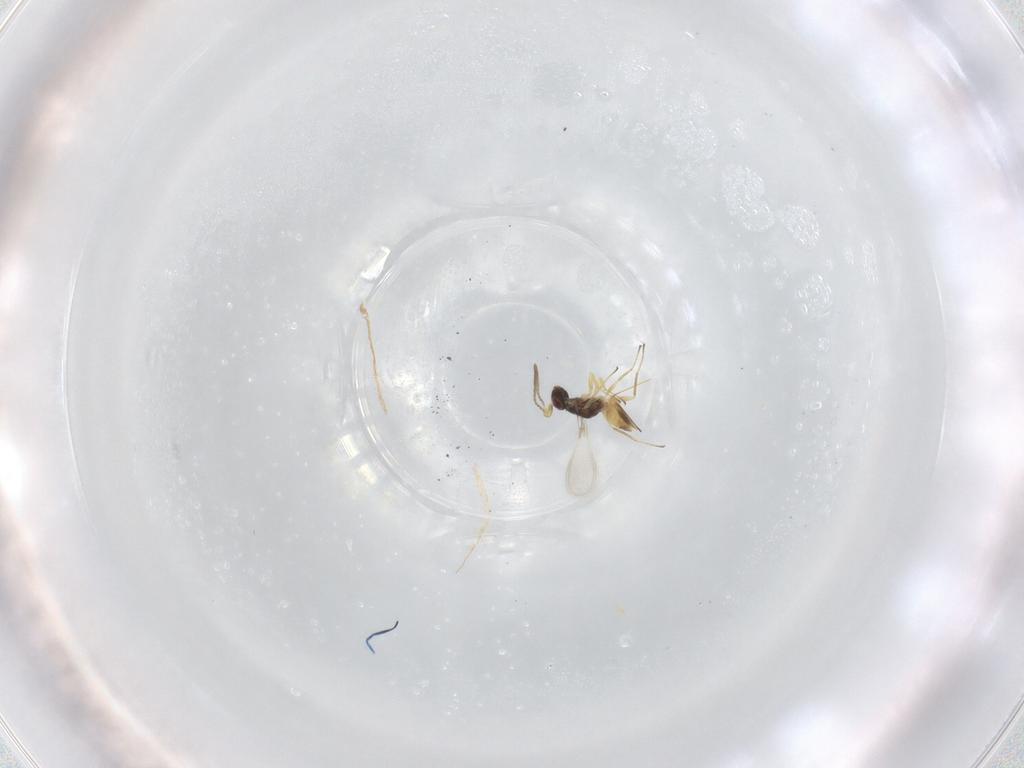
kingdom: Animalia
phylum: Arthropoda
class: Insecta
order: Hymenoptera
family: Mymaridae
